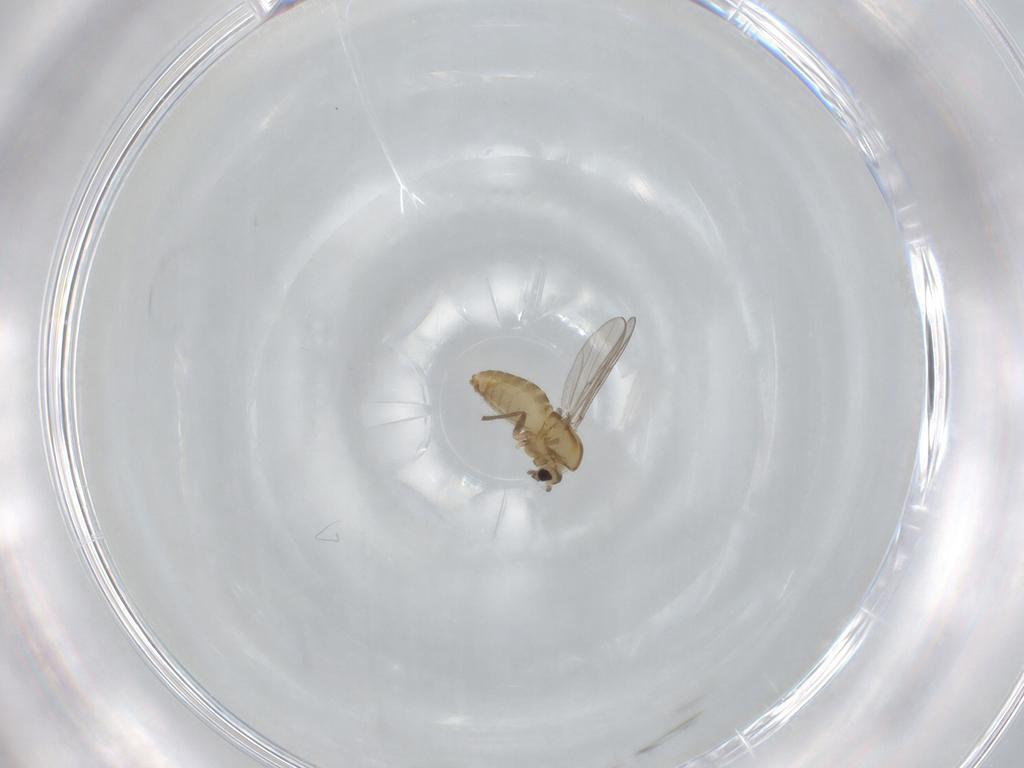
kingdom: Animalia
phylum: Arthropoda
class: Insecta
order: Diptera
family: Chironomidae
